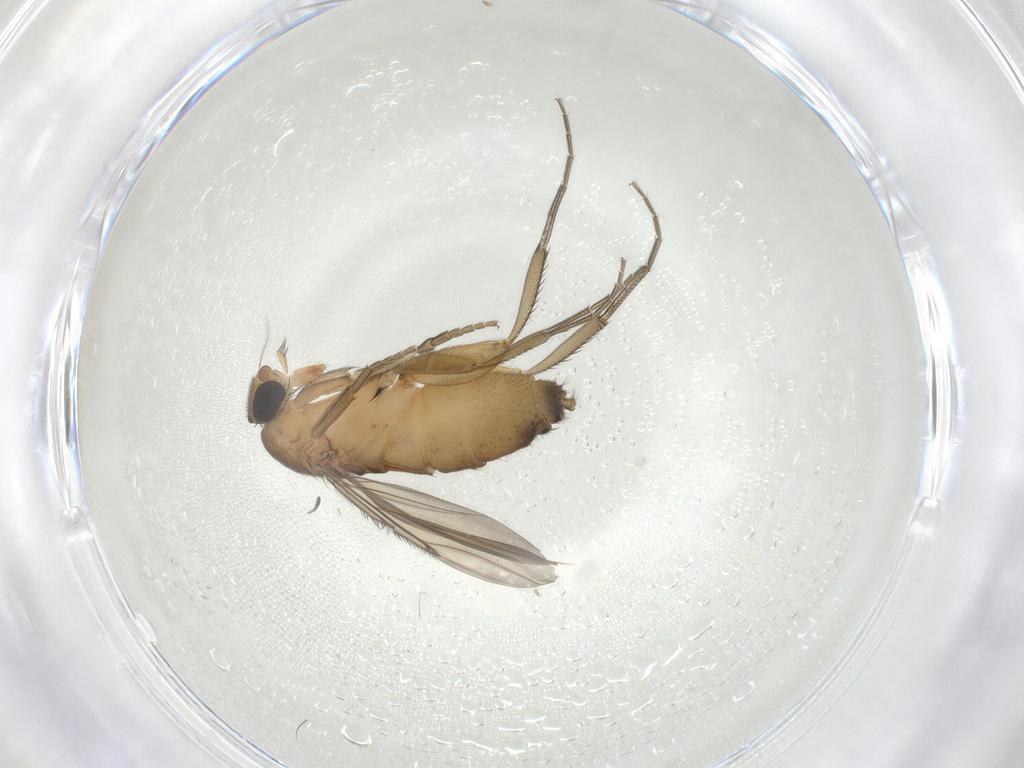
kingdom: Animalia
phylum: Arthropoda
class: Insecta
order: Diptera
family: Phoridae
